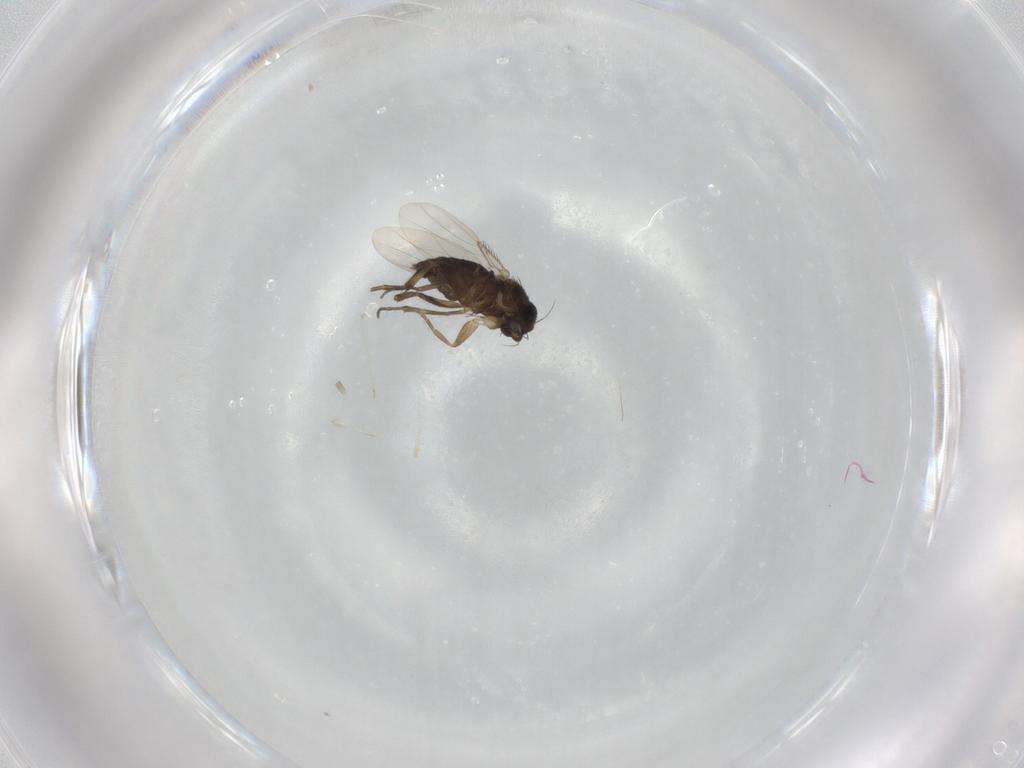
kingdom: Animalia
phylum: Arthropoda
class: Insecta
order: Diptera
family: Phoridae
